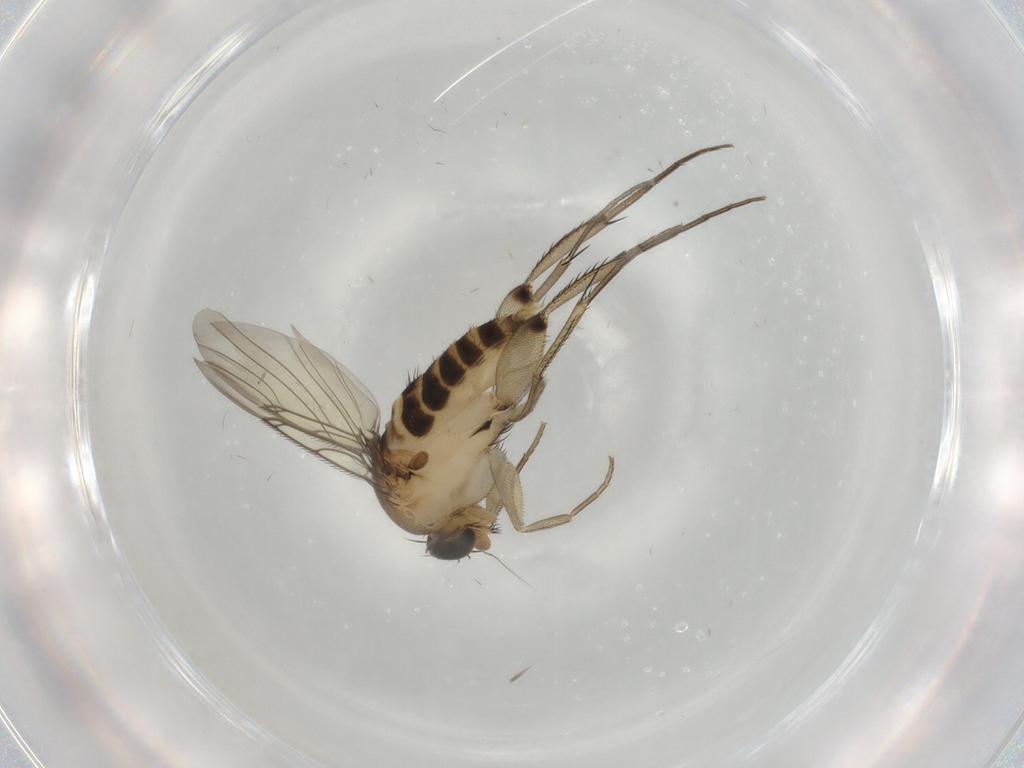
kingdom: Animalia
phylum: Arthropoda
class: Insecta
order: Diptera
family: Phoridae
